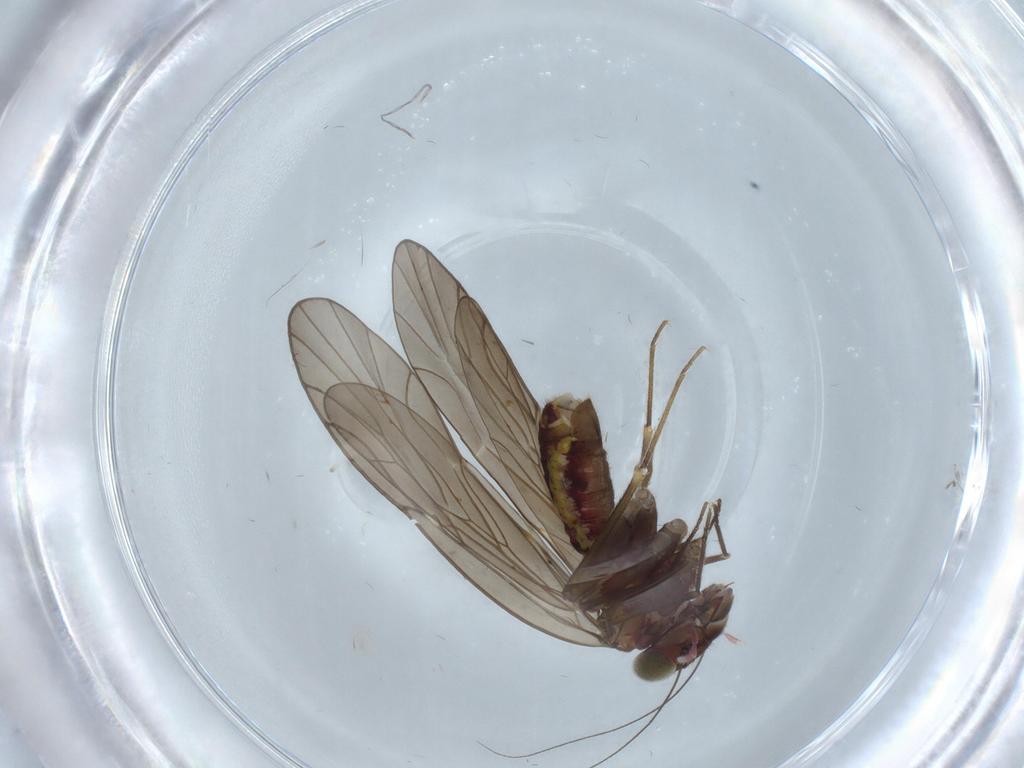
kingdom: Animalia
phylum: Arthropoda
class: Insecta
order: Psocodea
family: Philotarsidae
